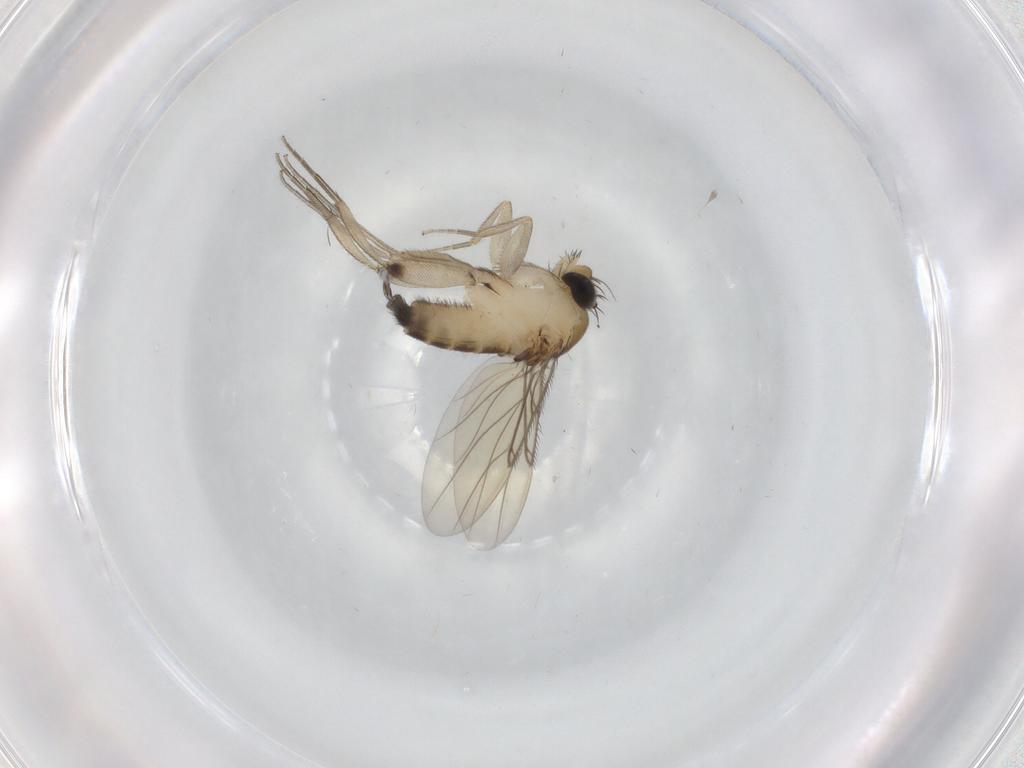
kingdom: Animalia
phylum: Arthropoda
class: Insecta
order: Diptera
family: Phoridae
